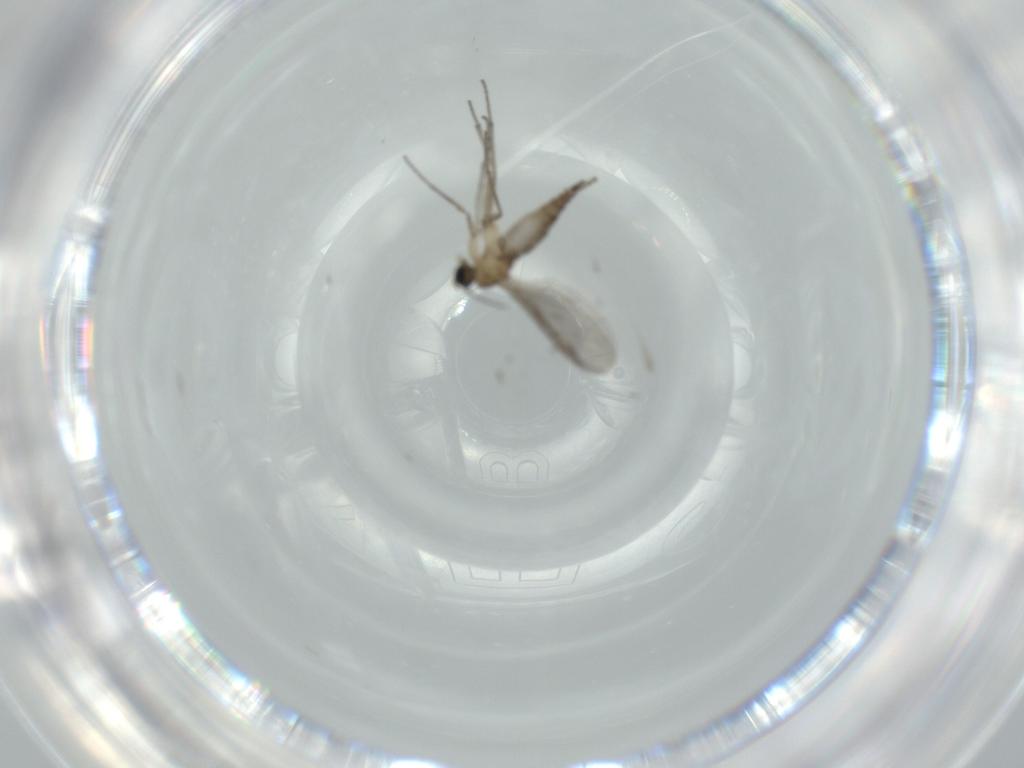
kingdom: Animalia
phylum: Arthropoda
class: Insecta
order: Diptera
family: Sciaridae
